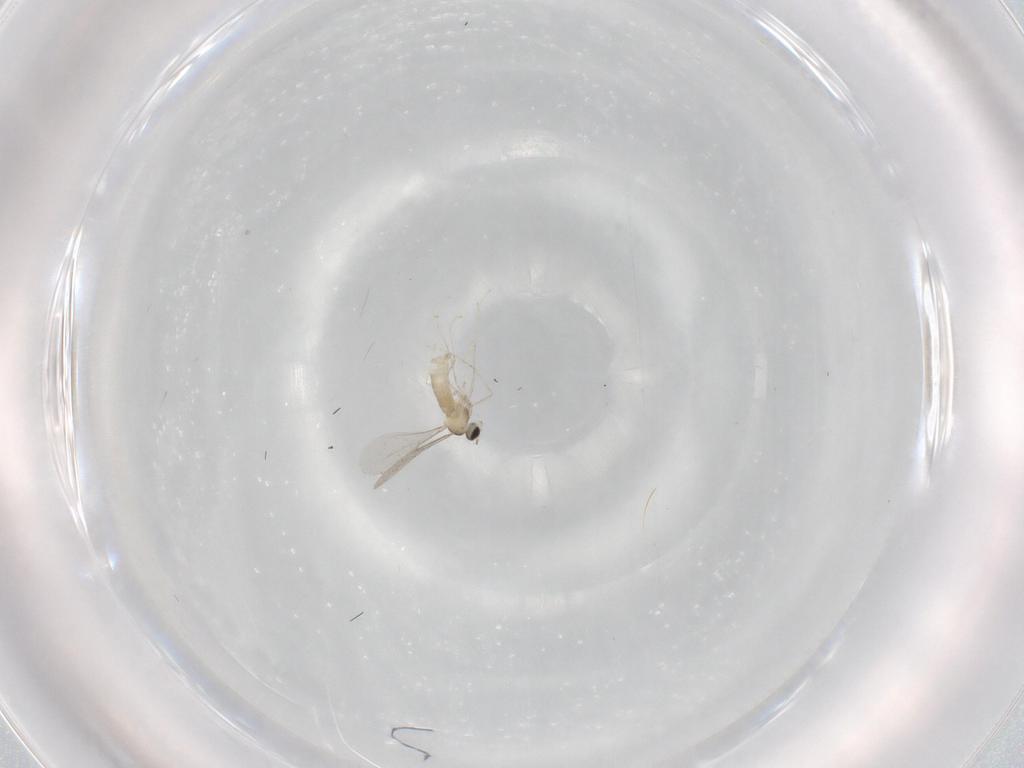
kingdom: Animalia
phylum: Arthropoda
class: Insecta
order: Diptera
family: Cecidomyiidae
